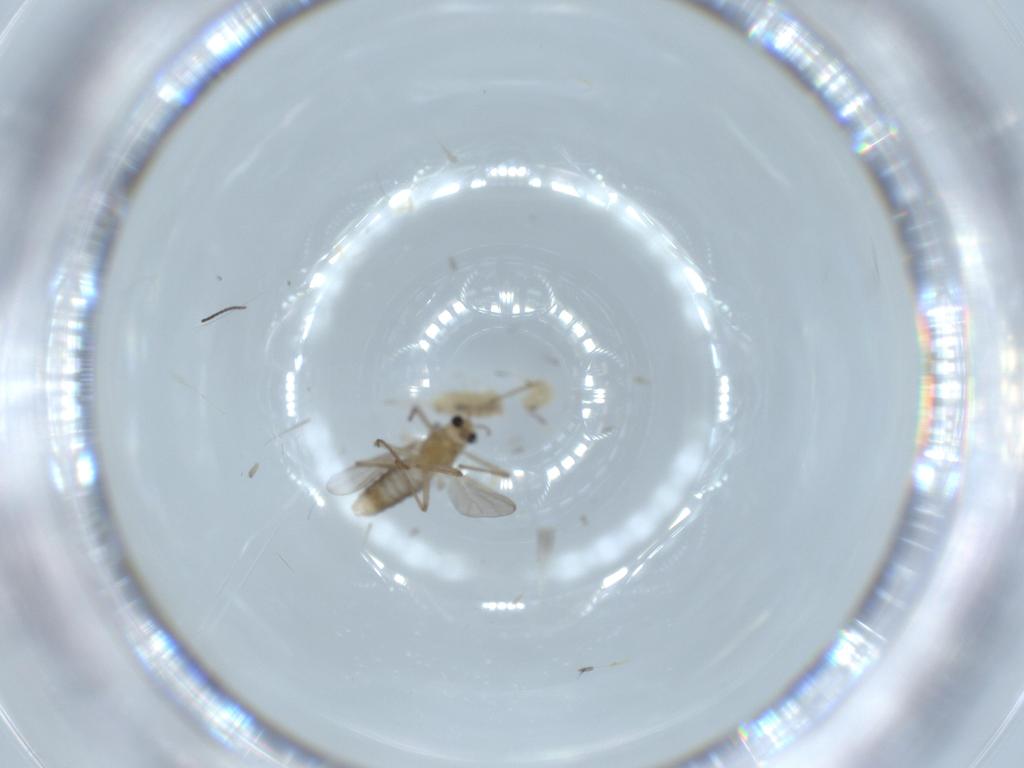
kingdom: Animalia
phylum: Arthropoda
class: Insecta
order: Diptera
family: Chironomidae
